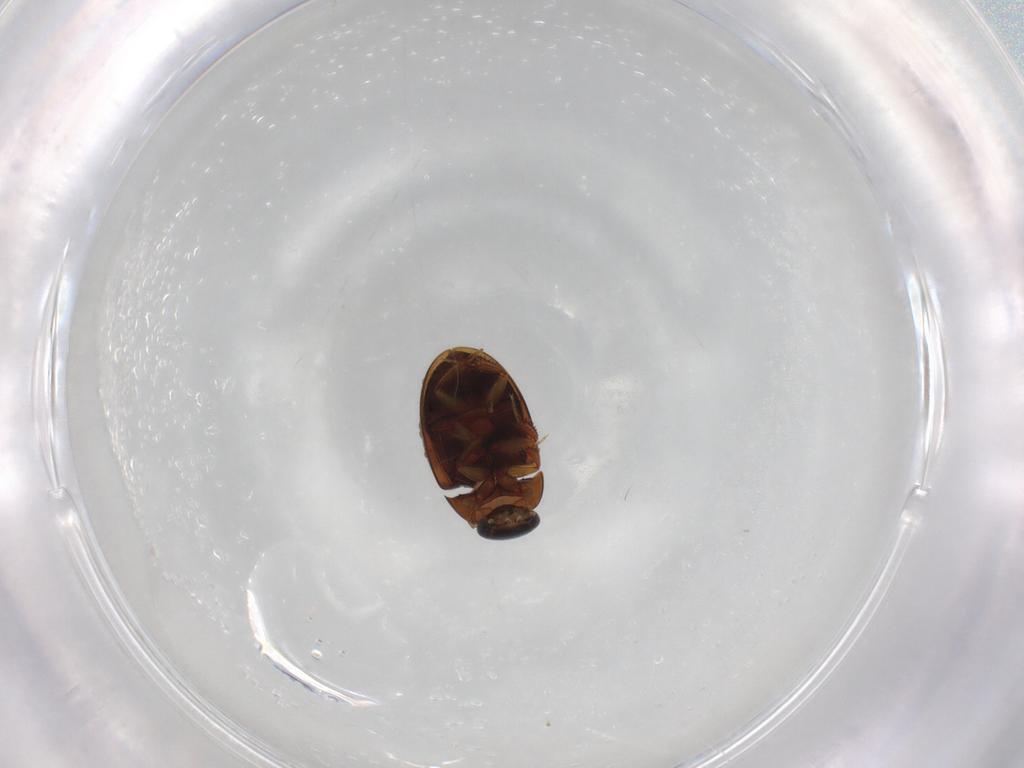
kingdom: Animalia
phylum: Arthropoda
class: Insecta
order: Coleoptera
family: Hydrophilidae
